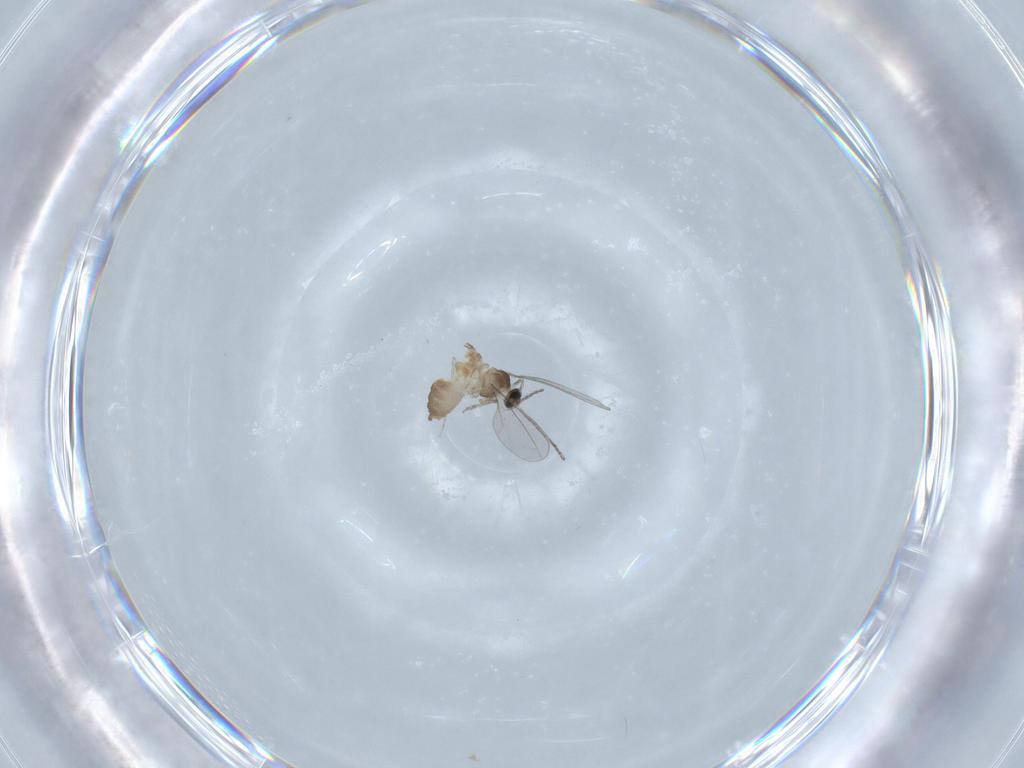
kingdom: Animalia
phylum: Arthropoda
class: Insecta
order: Diptera
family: Cecidomyiidae
